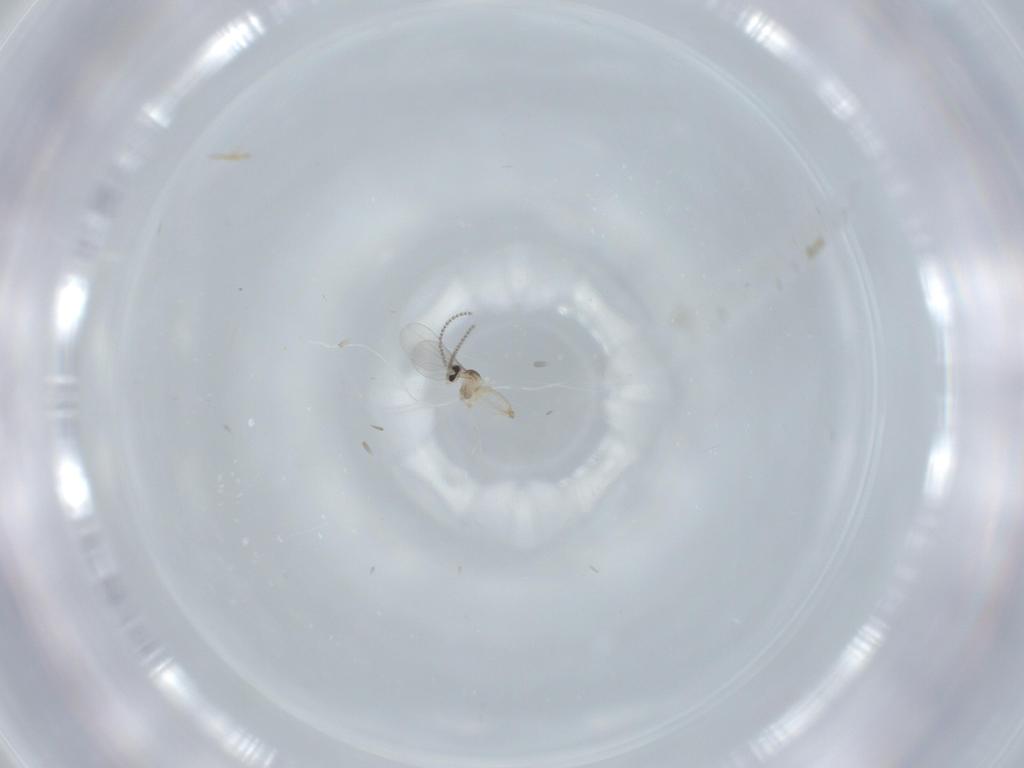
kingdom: Animalia
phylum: Arthropoda
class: Insecta
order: Diptera
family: Cecidomyiidae
